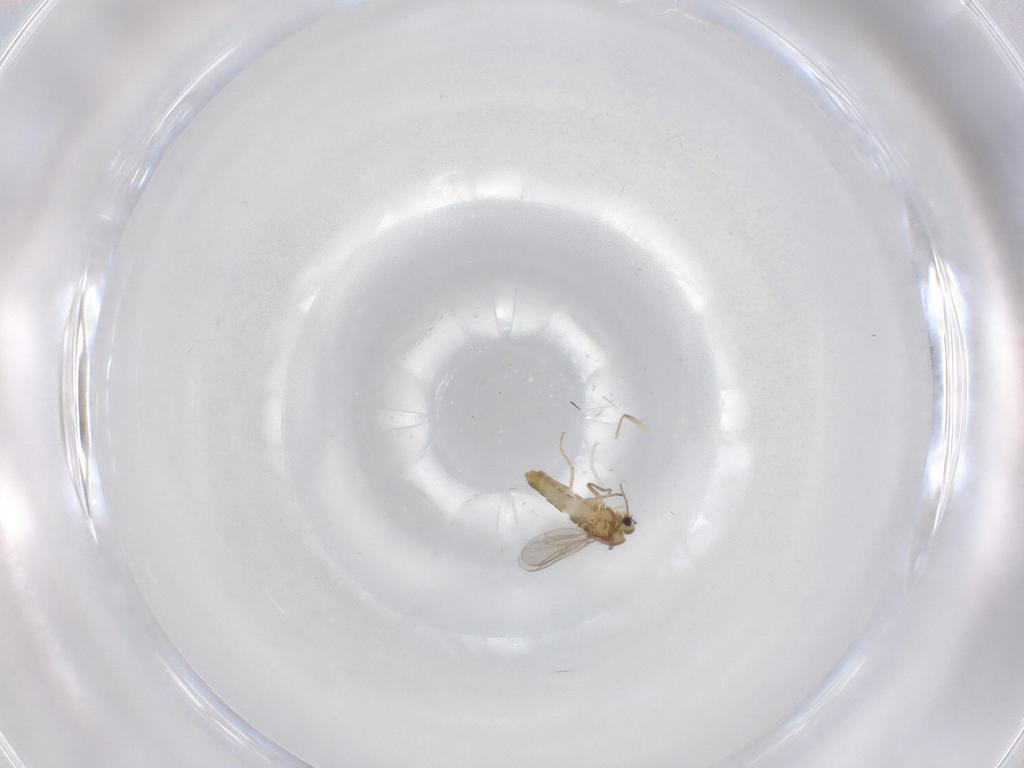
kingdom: Animalia
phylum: Arthropoda
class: Insecta
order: Diptera
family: Chironomidae
